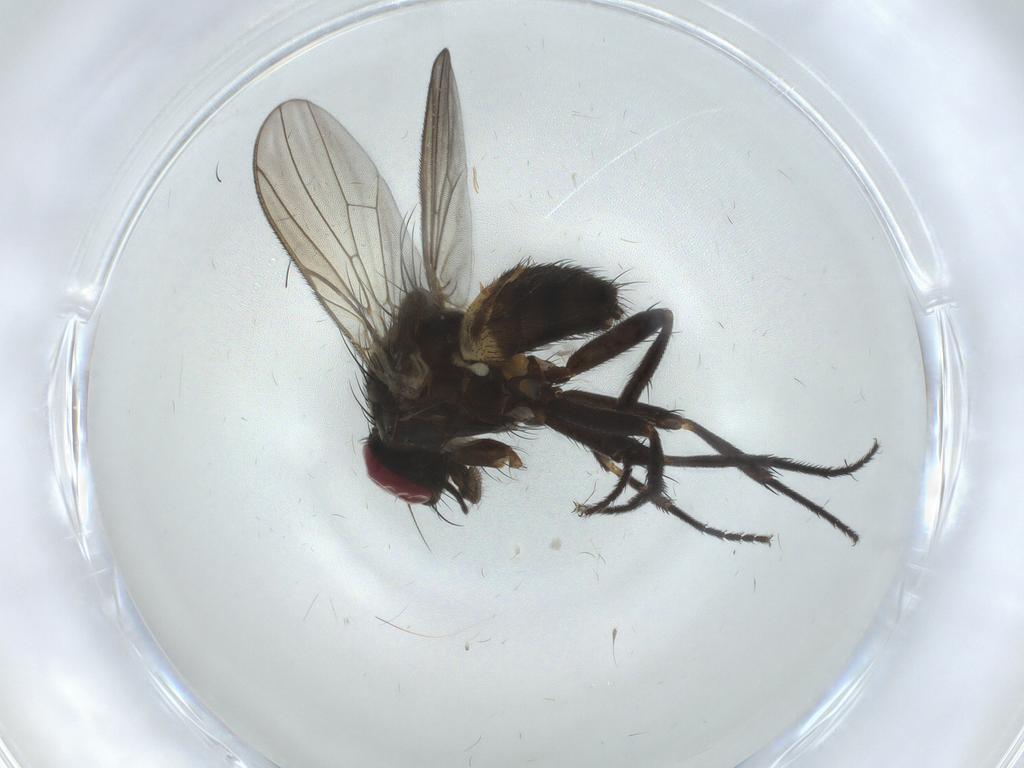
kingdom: Animalia
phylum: Arthropoda
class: Insecta
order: Diptera
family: Fanniidae
